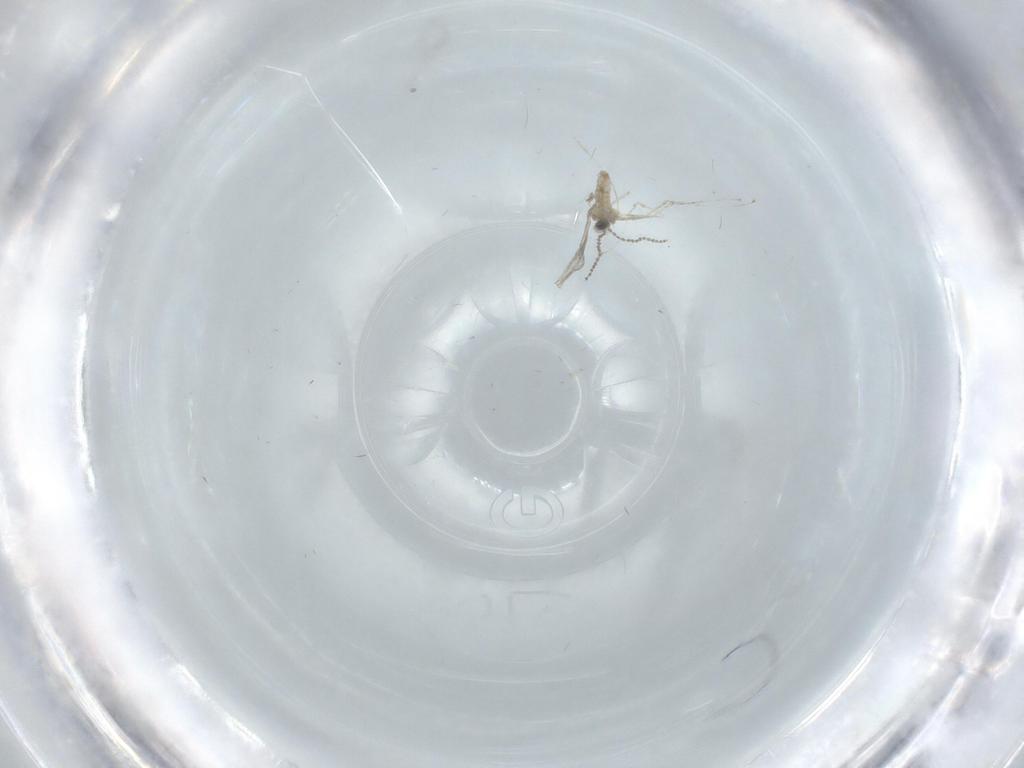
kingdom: Animalia
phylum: Arthropoda
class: Insecta
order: Diptera
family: Cecidomyiidae
